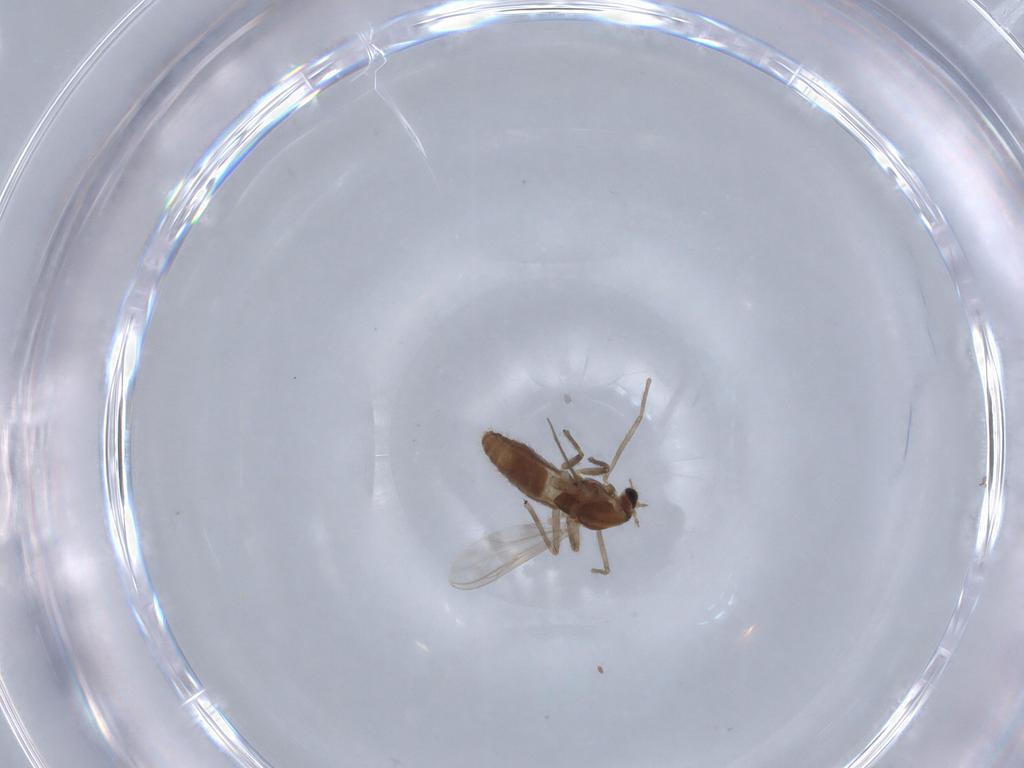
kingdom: Animalia
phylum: Arthropoda
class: Insecta
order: Diptera
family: Chironomidae
